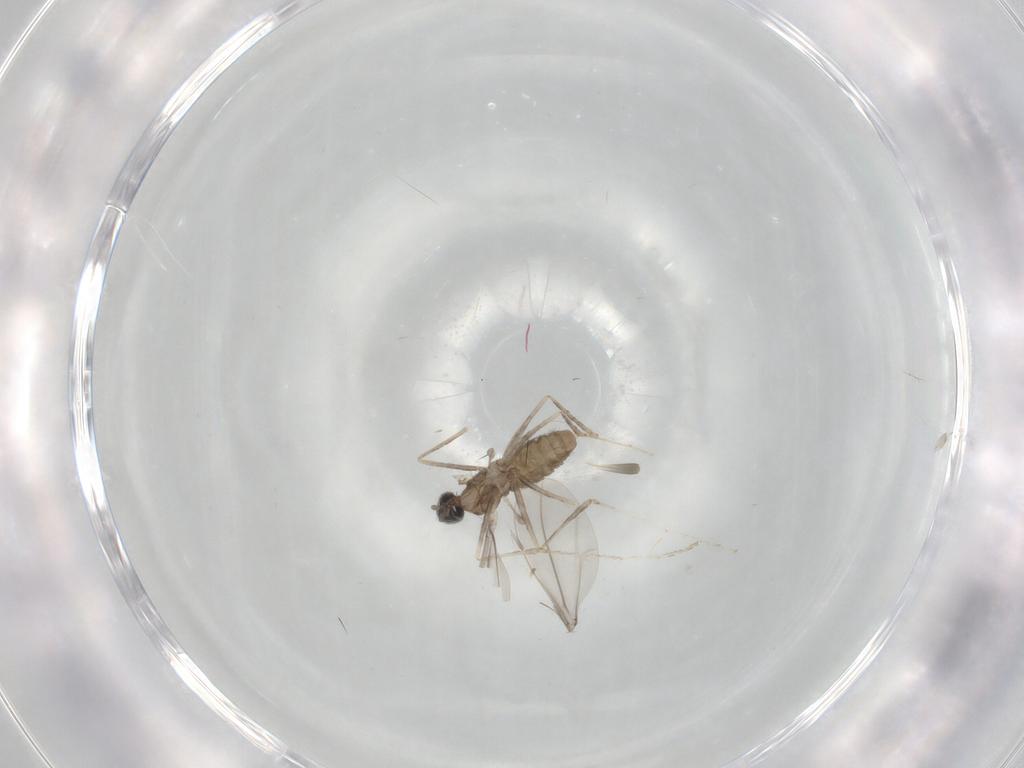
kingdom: Animalia
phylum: Arthropoda
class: Insecta
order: Diptera
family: Cecidomyiidae
